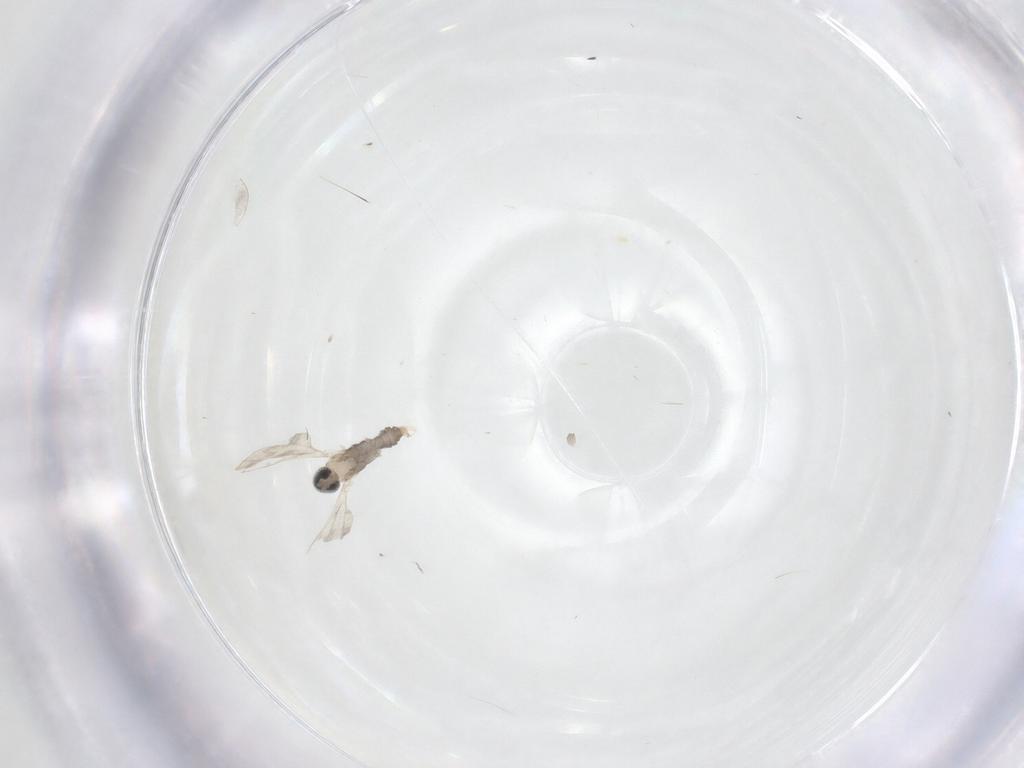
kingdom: Animalia
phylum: Arthropoda
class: Insecta
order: Diptera
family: Cecidomyiidae
